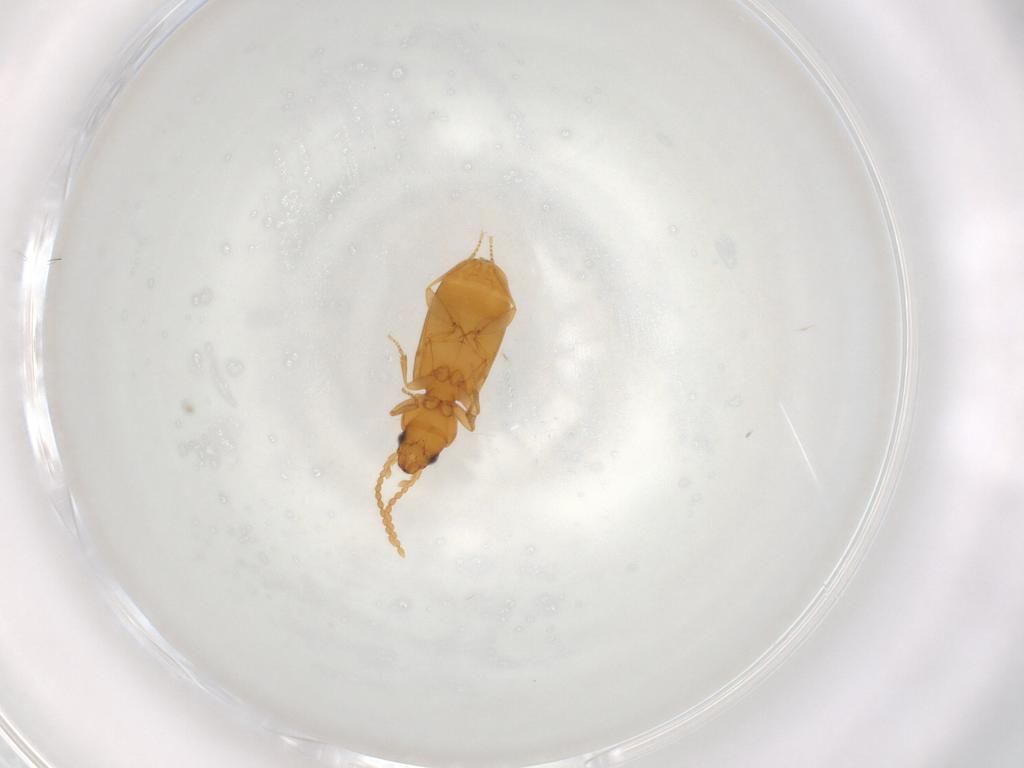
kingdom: Animalia
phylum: Arthropoda
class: Insecta
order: Coleoptera
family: Carabidae
